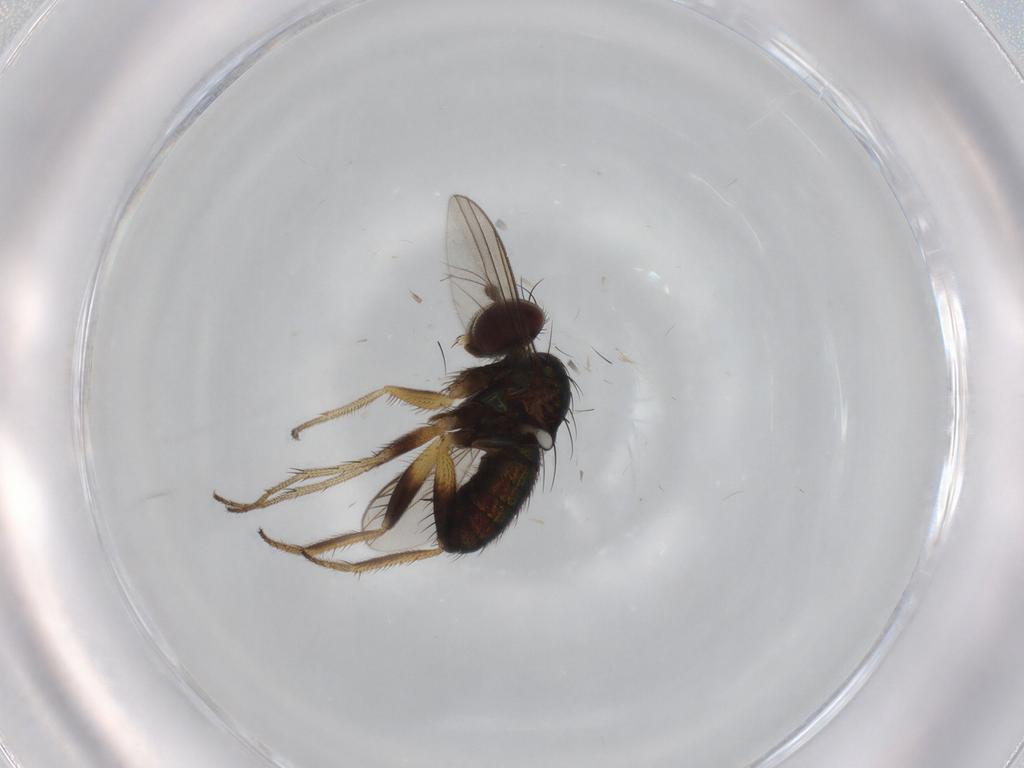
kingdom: Animalia
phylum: Arthropoda
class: Insecta
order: Diptera
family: Dolichopodidae
